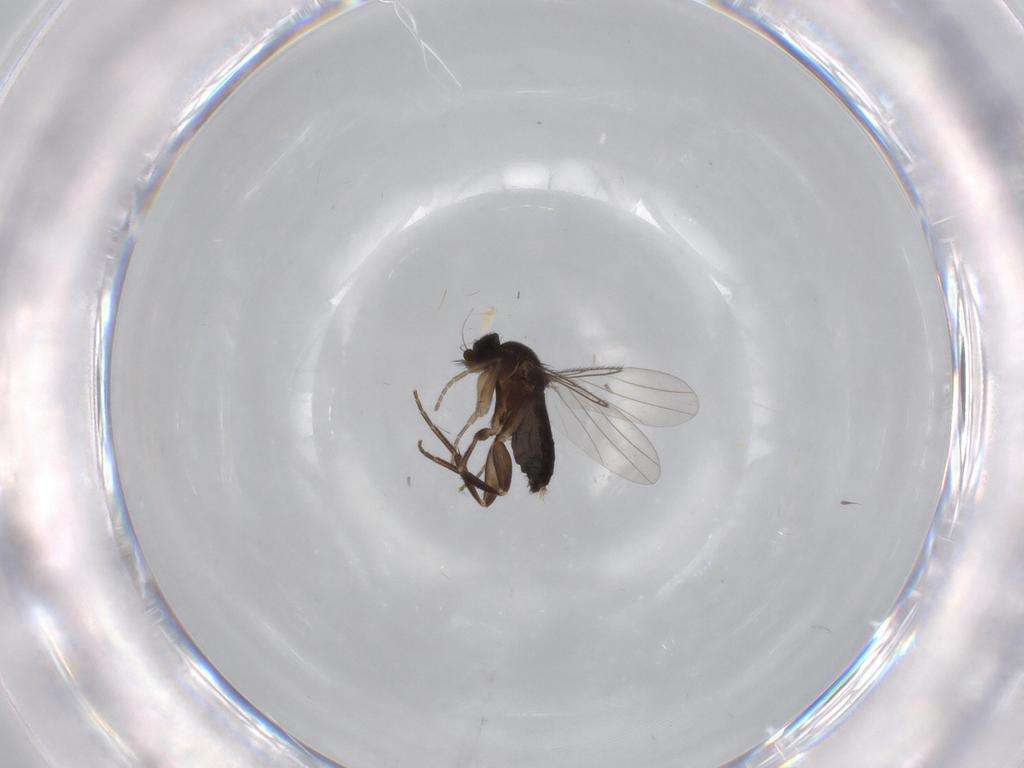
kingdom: Animalia
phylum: Arthropoda
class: Insecta
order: Diptera
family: Phoridae
